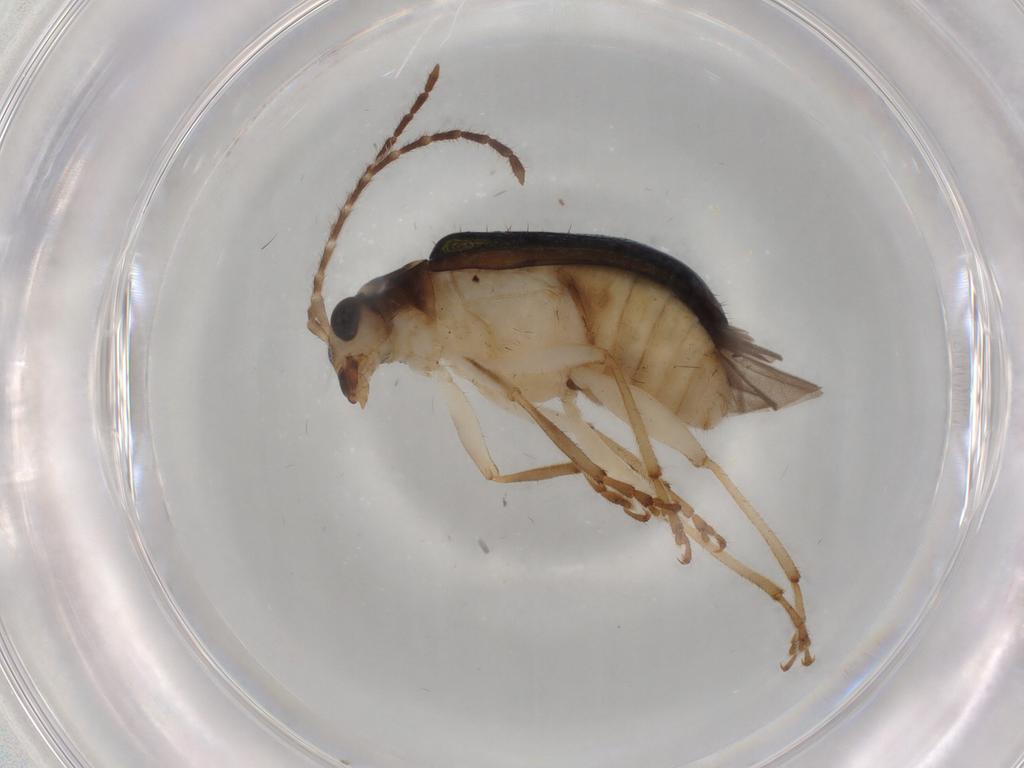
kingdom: Animalia
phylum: Arthropoda
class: Insecta
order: Coleoptera
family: Chrysomelidae
